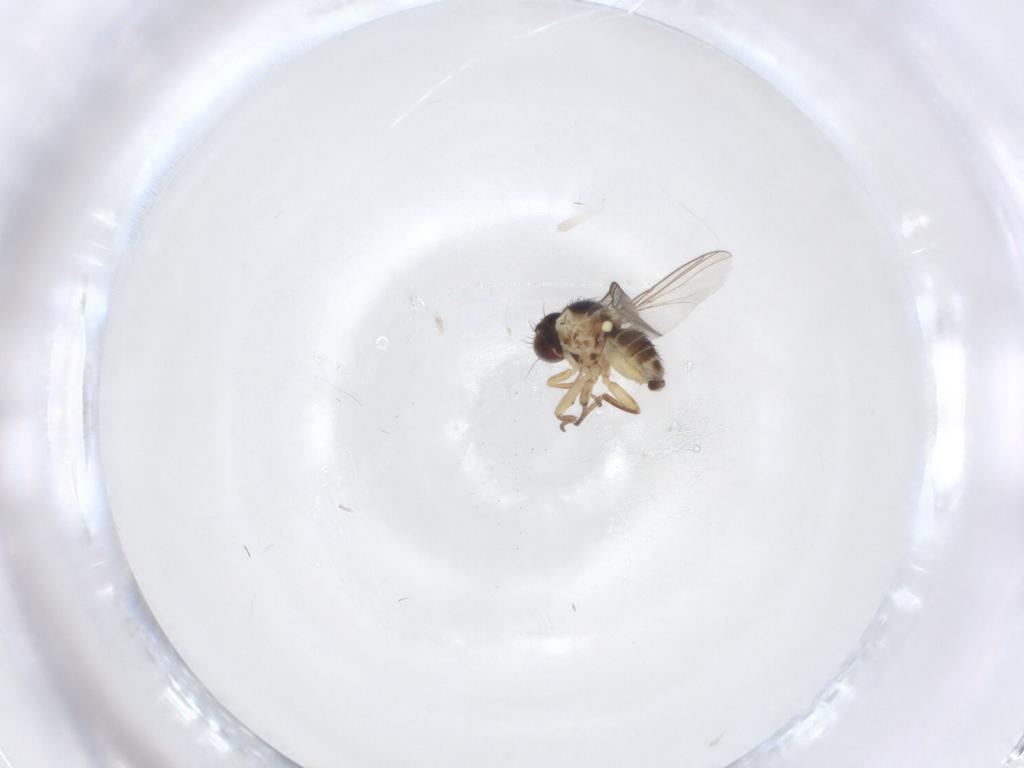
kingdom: Animalia
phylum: Arthropoda
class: Insecta
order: Diptera
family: Agromyzidae
